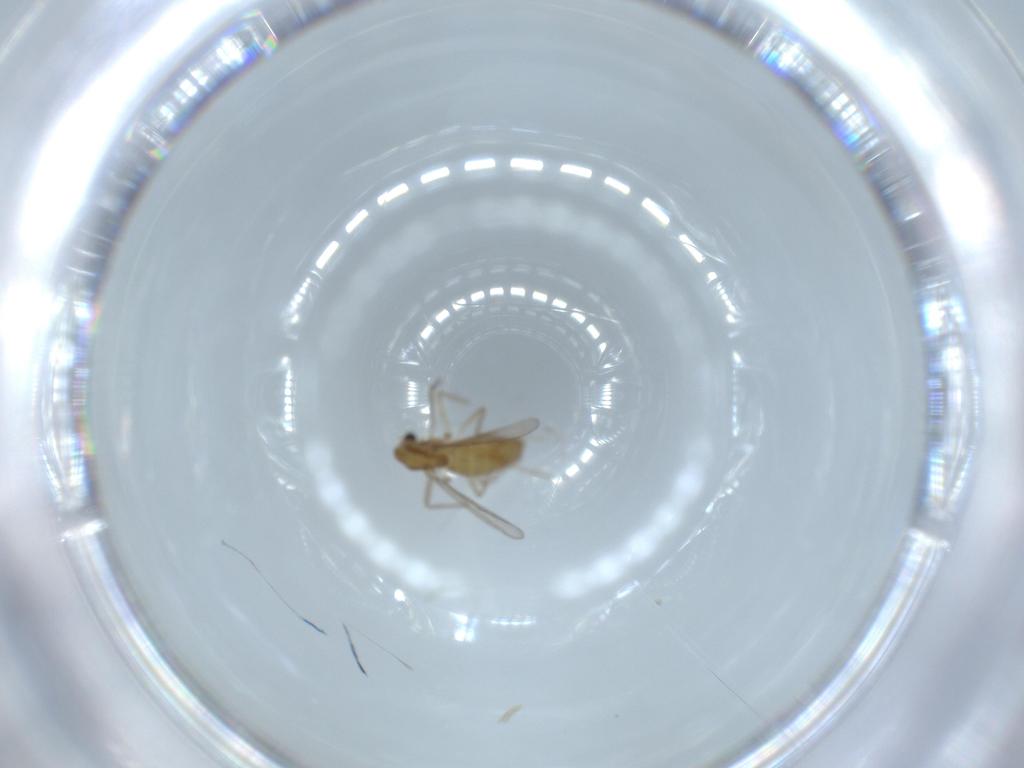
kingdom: Animalia
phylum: Arthropoda
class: Insecta
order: Diptera
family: Chironomidae
